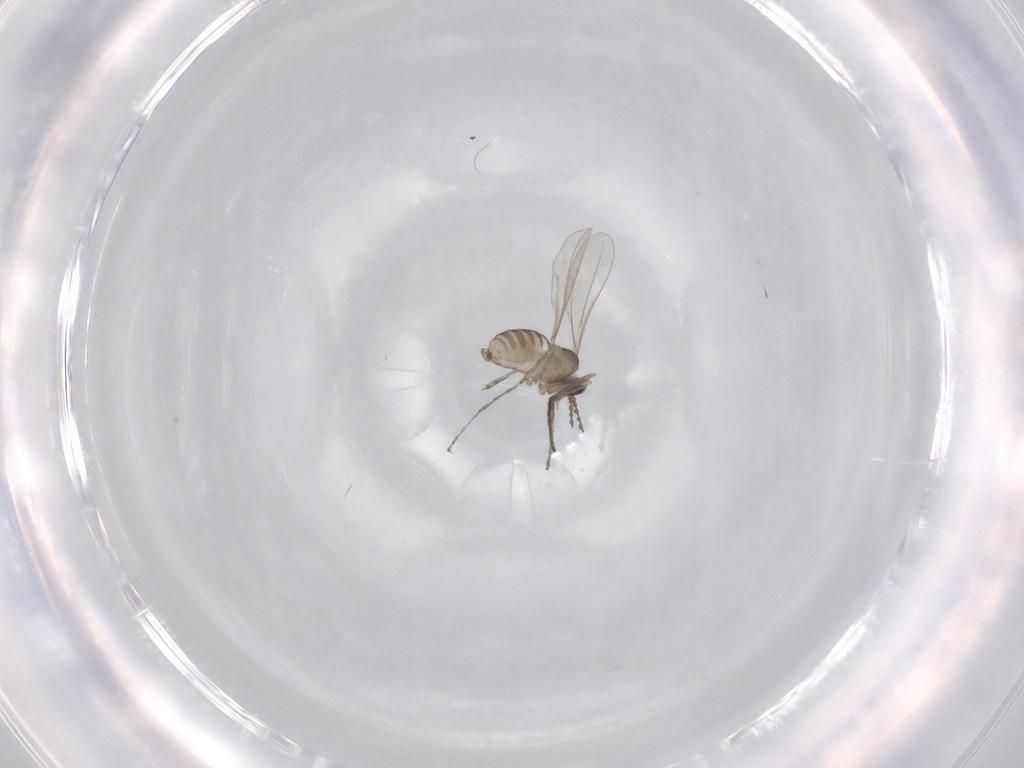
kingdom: Animalia
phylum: Arthropoda
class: Insecta
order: Diptera
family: Cecidomyiidae
